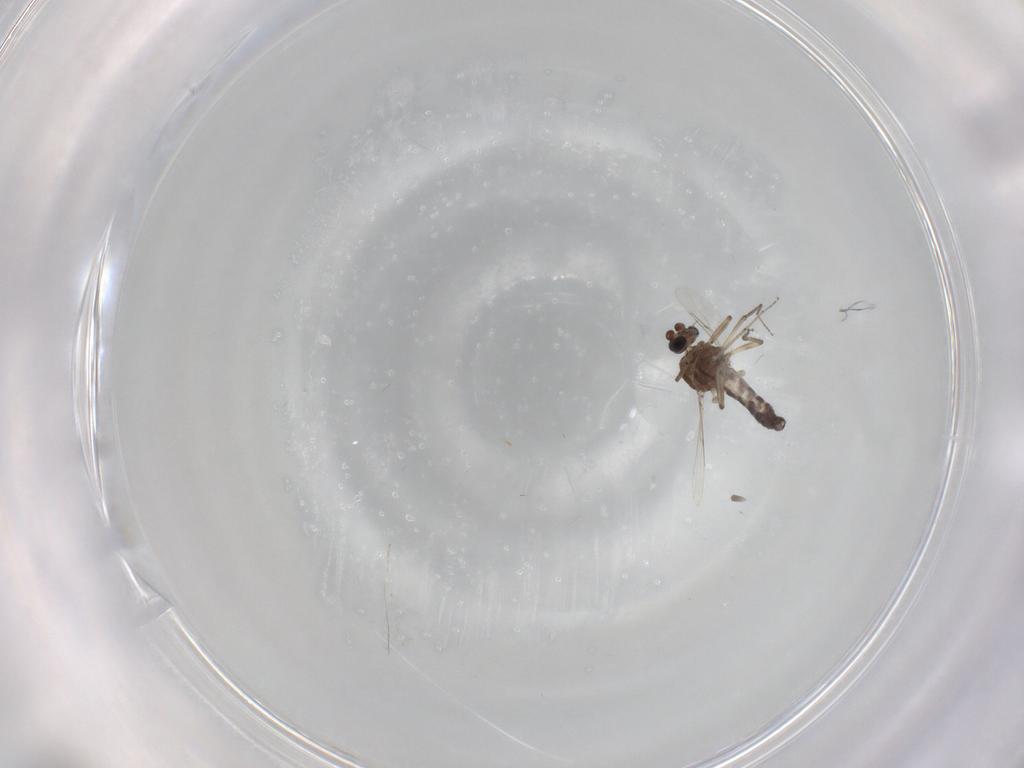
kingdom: Animalia
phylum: Arthropoda
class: Insecta
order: Diptera
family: Ceratopogonidae
